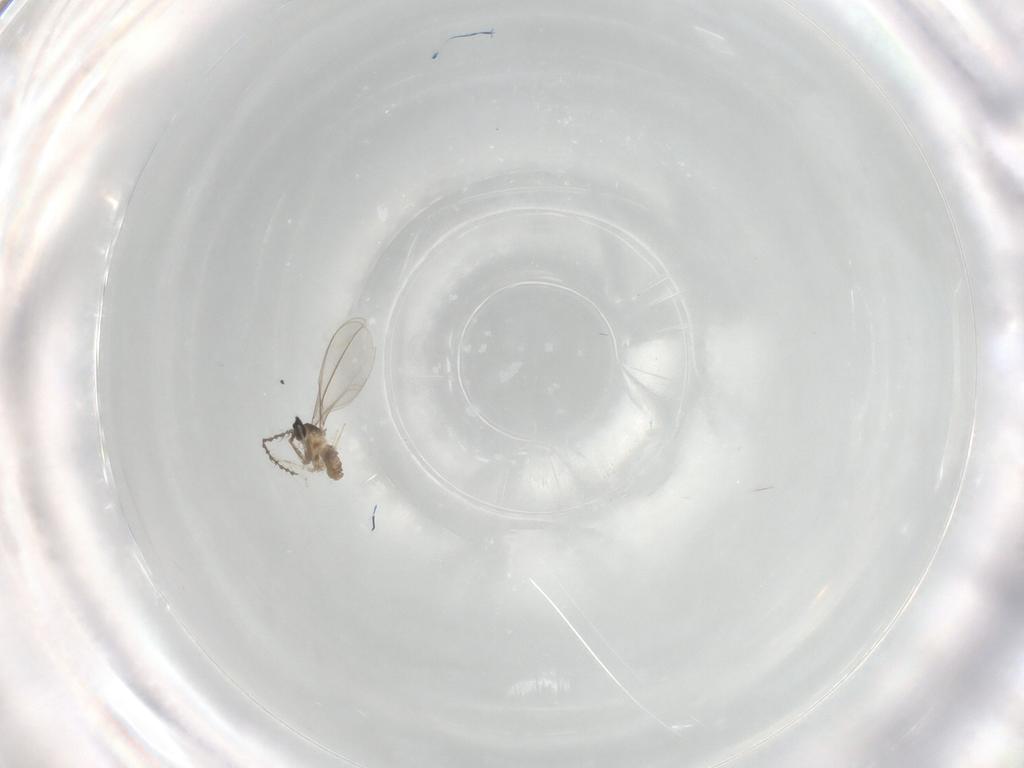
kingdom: Animalia
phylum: Arthropoda
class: Insecta
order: Diptera
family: Cecidomyiidae
